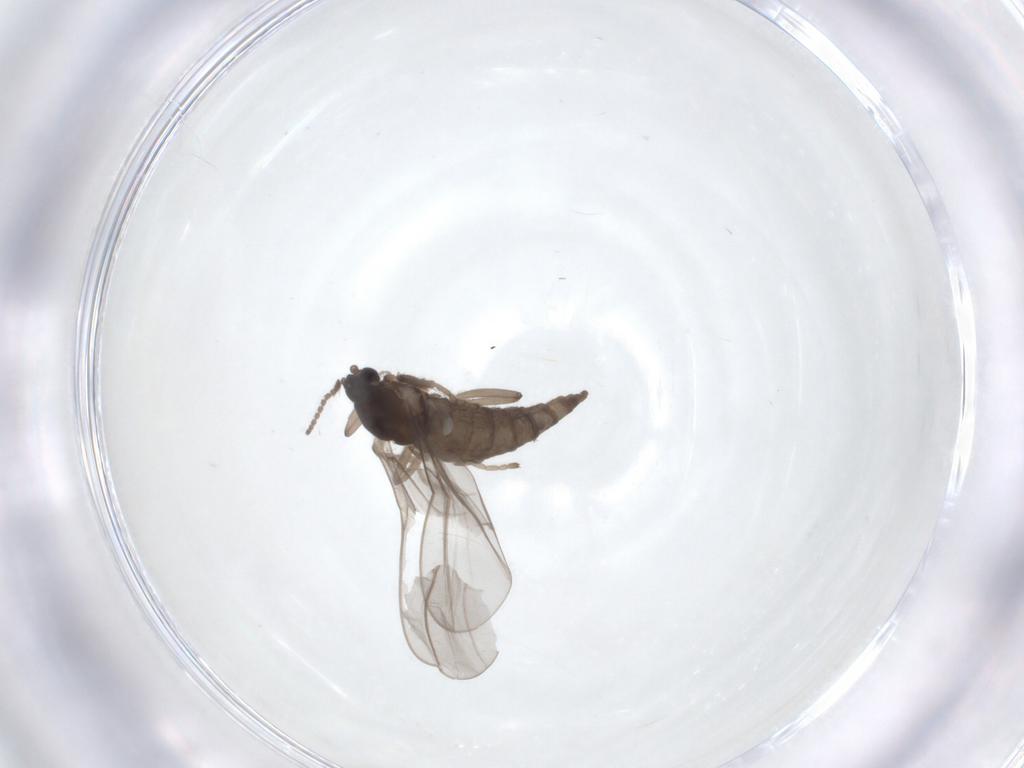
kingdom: Animalia
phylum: Arthropoda
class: Insecta
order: Diptera
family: Cecidomyiidae
